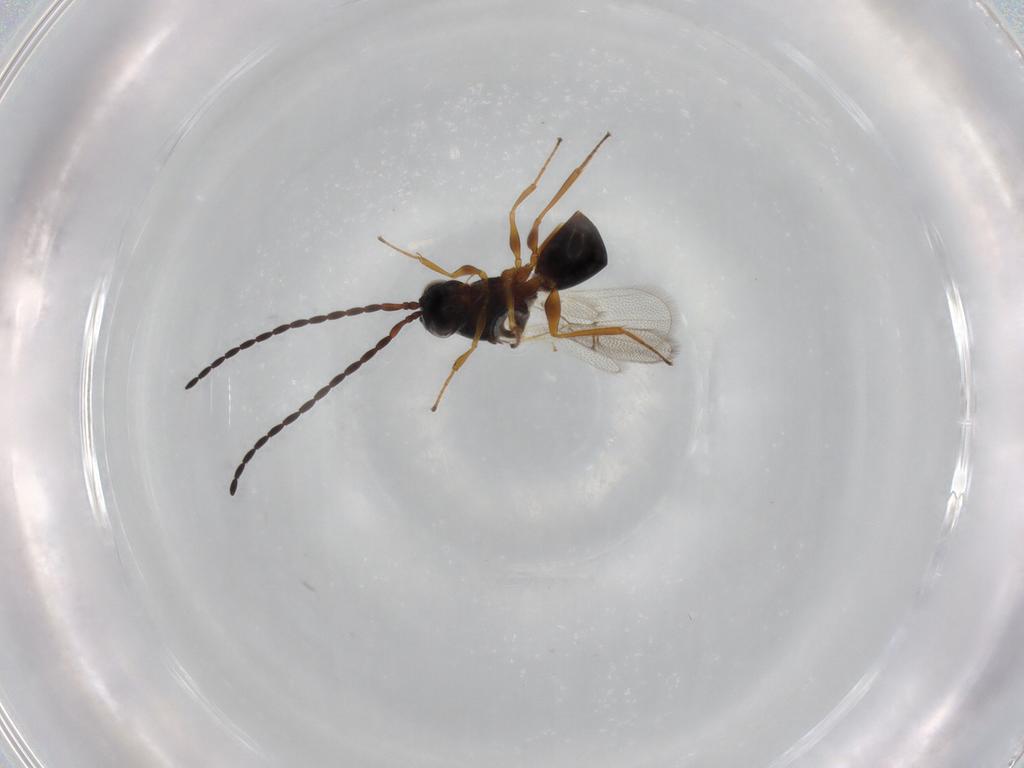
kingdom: Animalia
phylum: Arthropoda
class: Insecta
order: Hymenoptera
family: Figitidae
